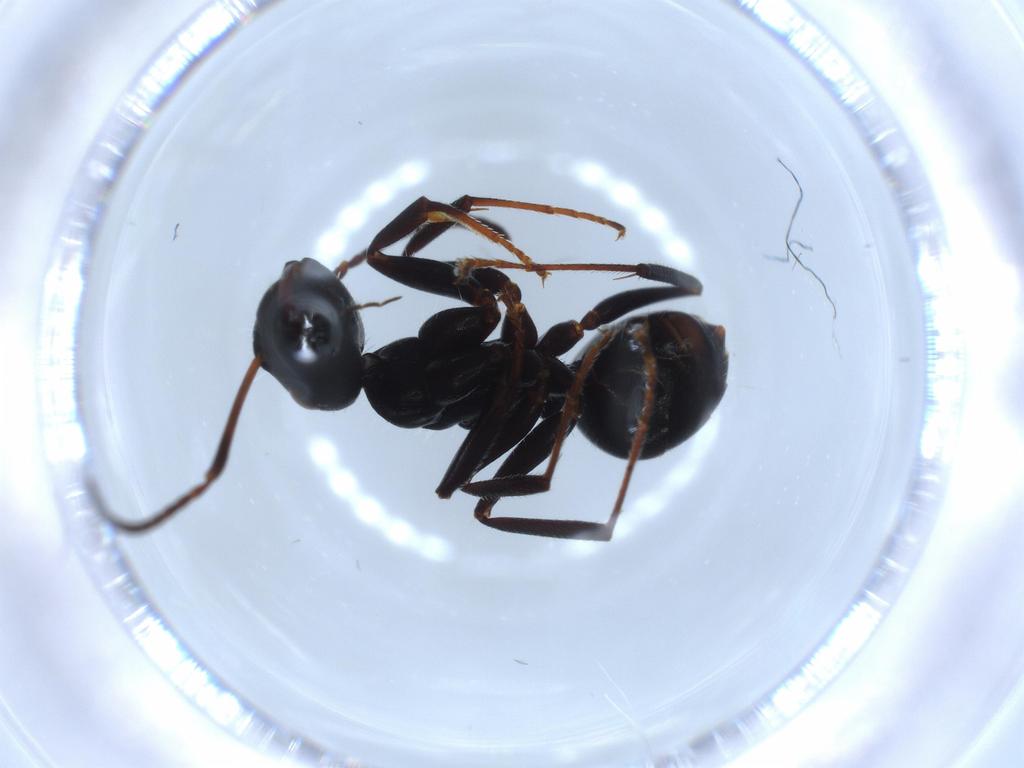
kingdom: Animalia
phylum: Arthropoda
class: Insecta
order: Hymenoptera
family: Formicidae
